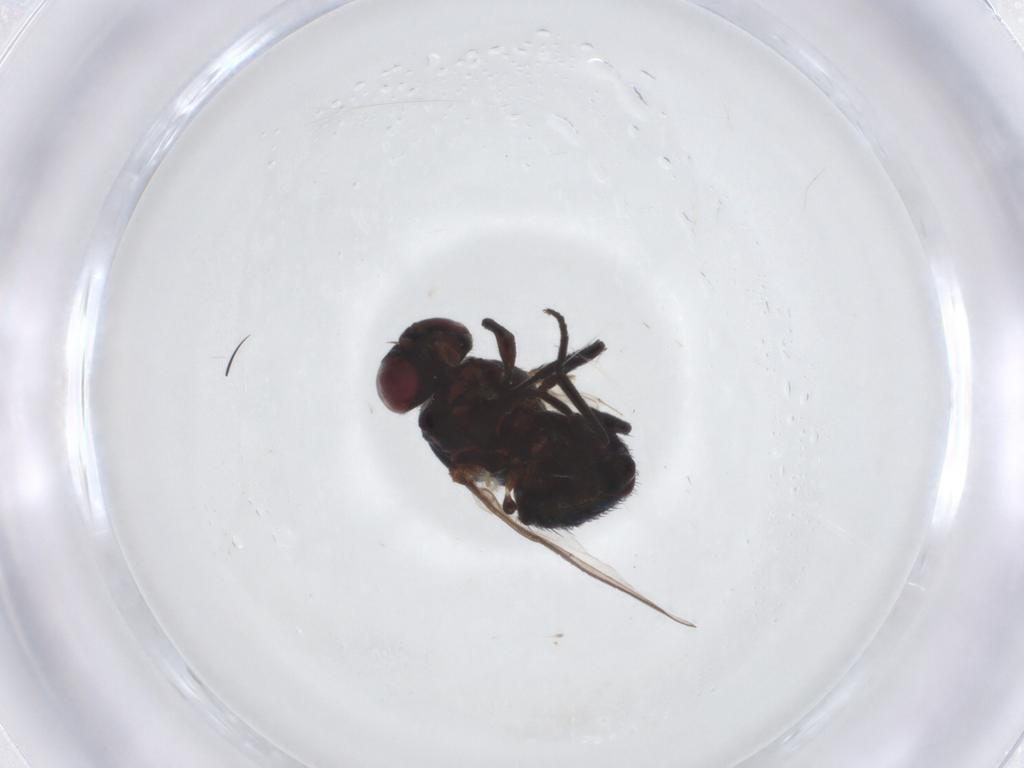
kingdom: Animalia
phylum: Arthropoda
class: Insecta
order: Diptera
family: Agromyzidae
